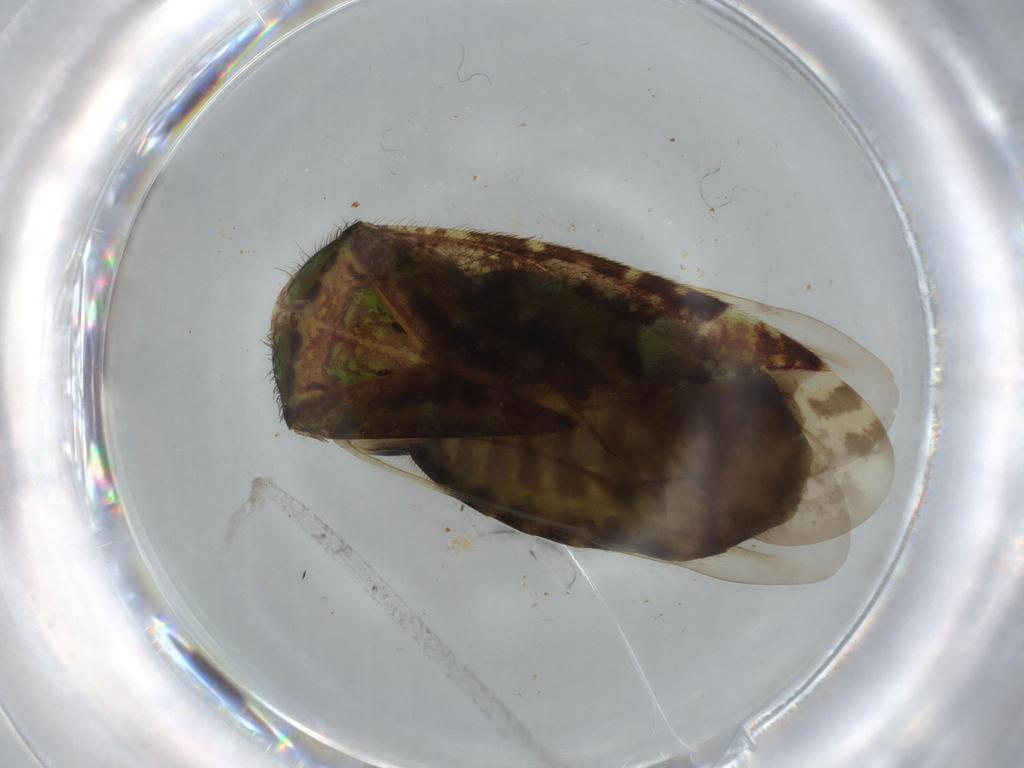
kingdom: Animalia
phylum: Arthropoda
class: Insecta
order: Hemiptera
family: Miridae
